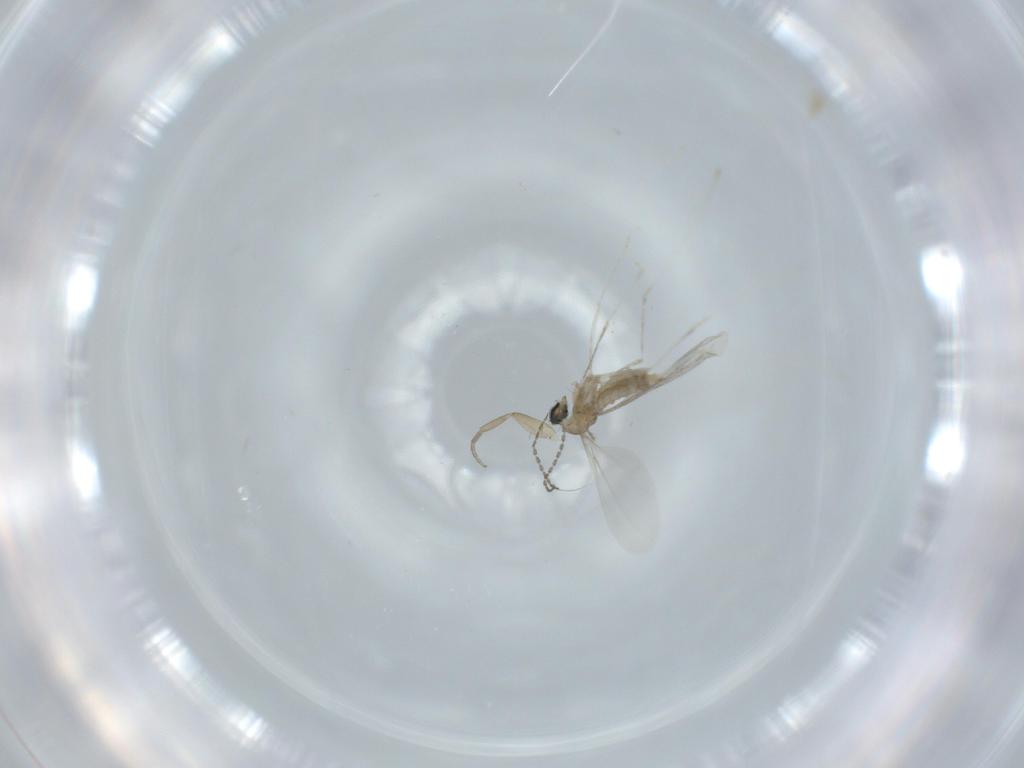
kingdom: Animalia
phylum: Arthropoda
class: Insecta
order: Diptera
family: Cecidomyiidae
